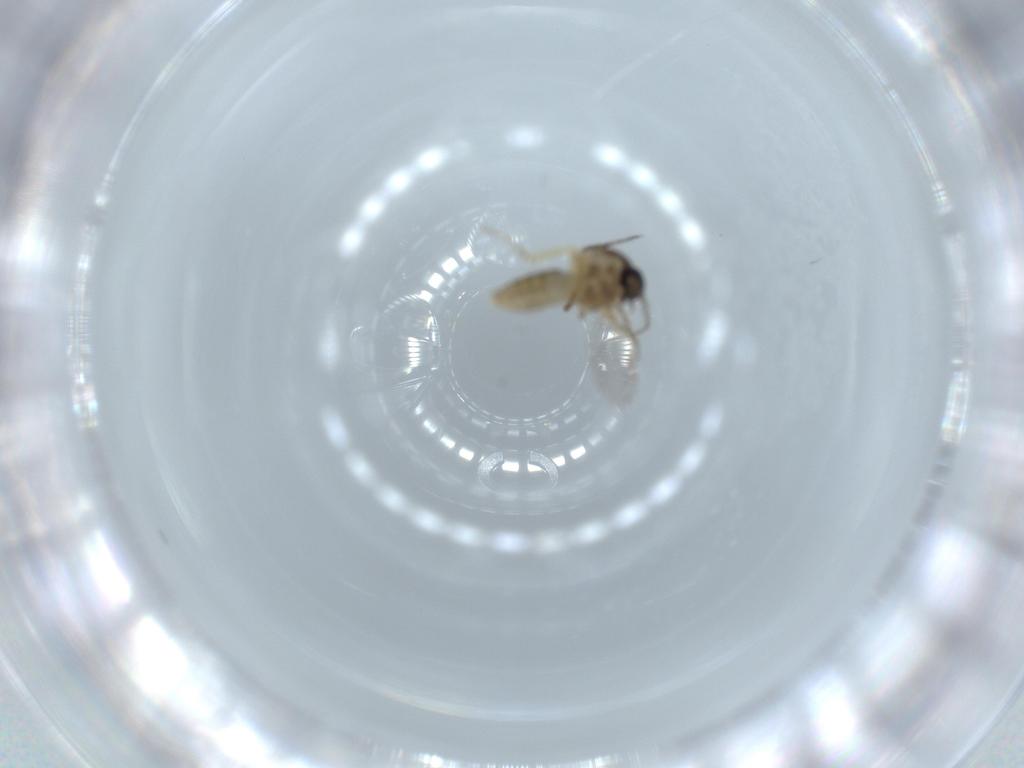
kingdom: Animalia
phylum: Arthropoda
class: Insecta
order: Diptera
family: Ceratopogonidae
